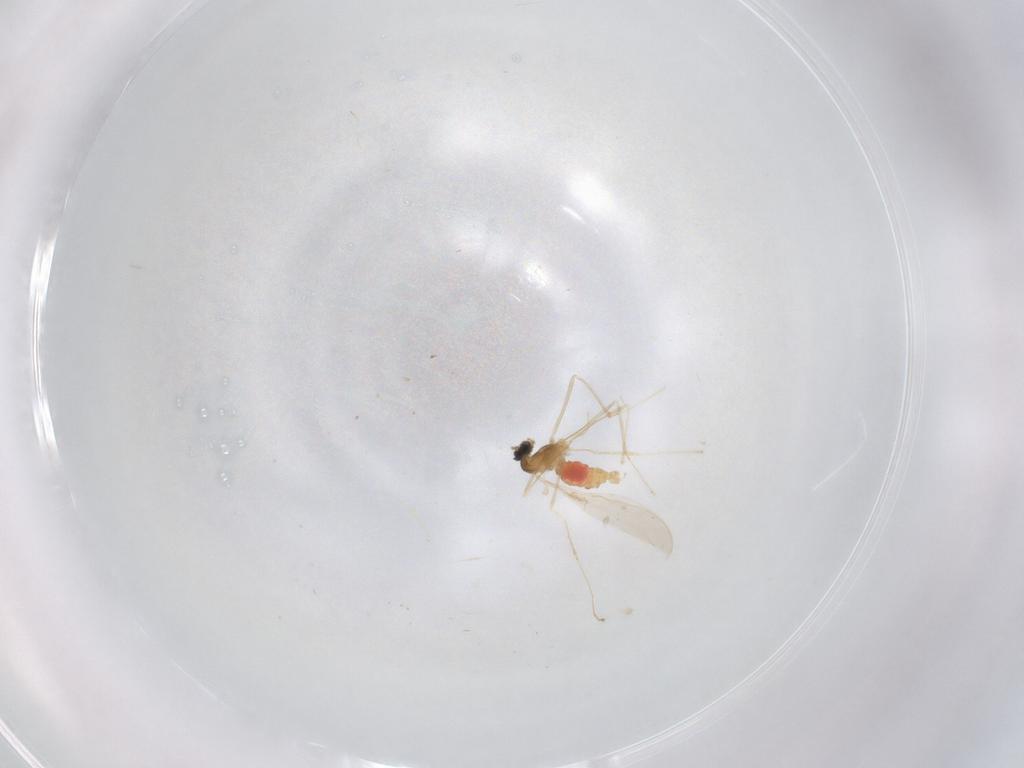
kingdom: Animalia
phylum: Arthropoda
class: Insecta
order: Diptera
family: Cecidomyiidae
